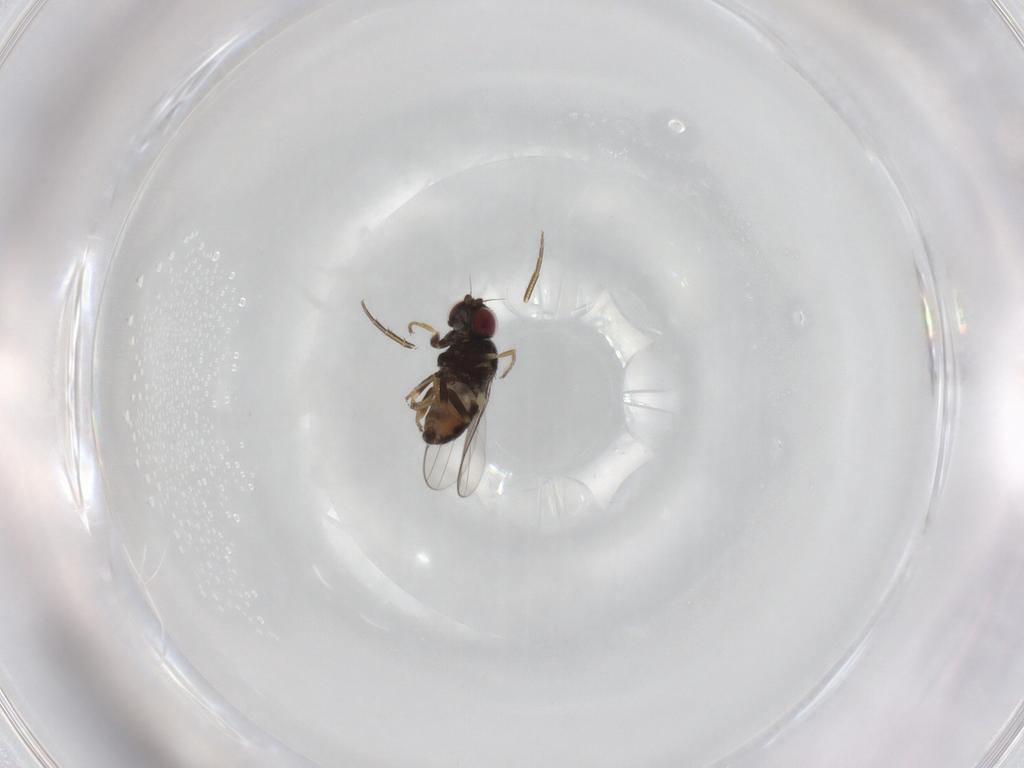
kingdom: Animalia
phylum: Arthropoda
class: Insecta
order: Diptera
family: Chloropidae
